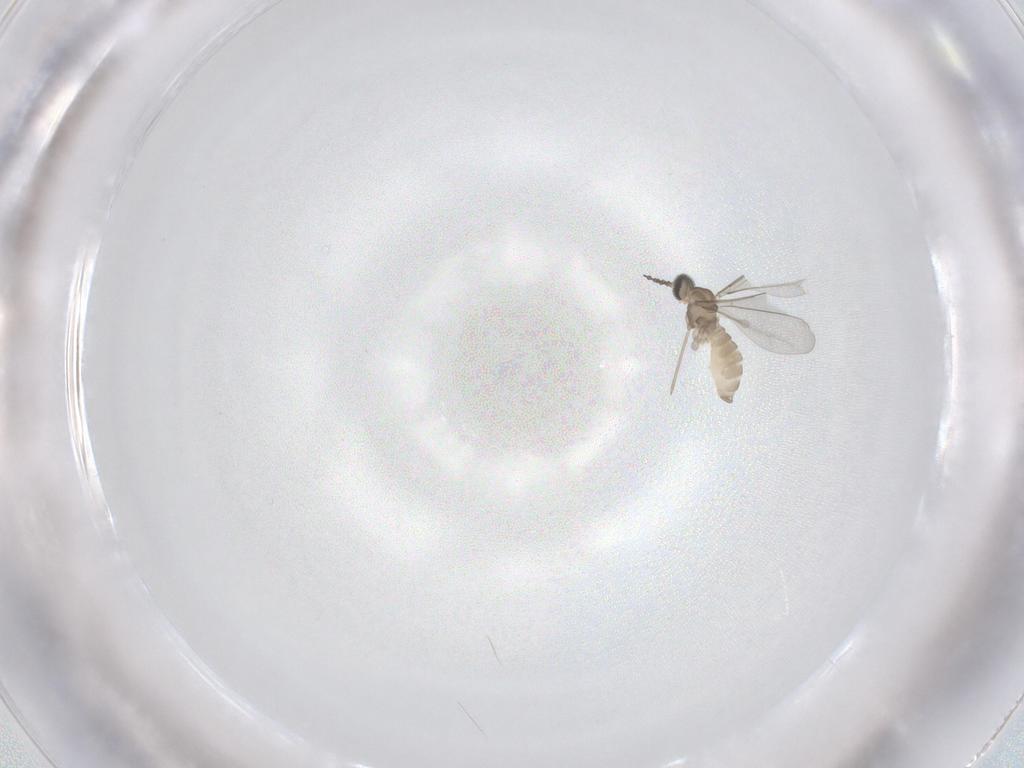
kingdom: Animalia
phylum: Arthropoda
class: Insecta
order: Diptera
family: Cecidomyiidae
